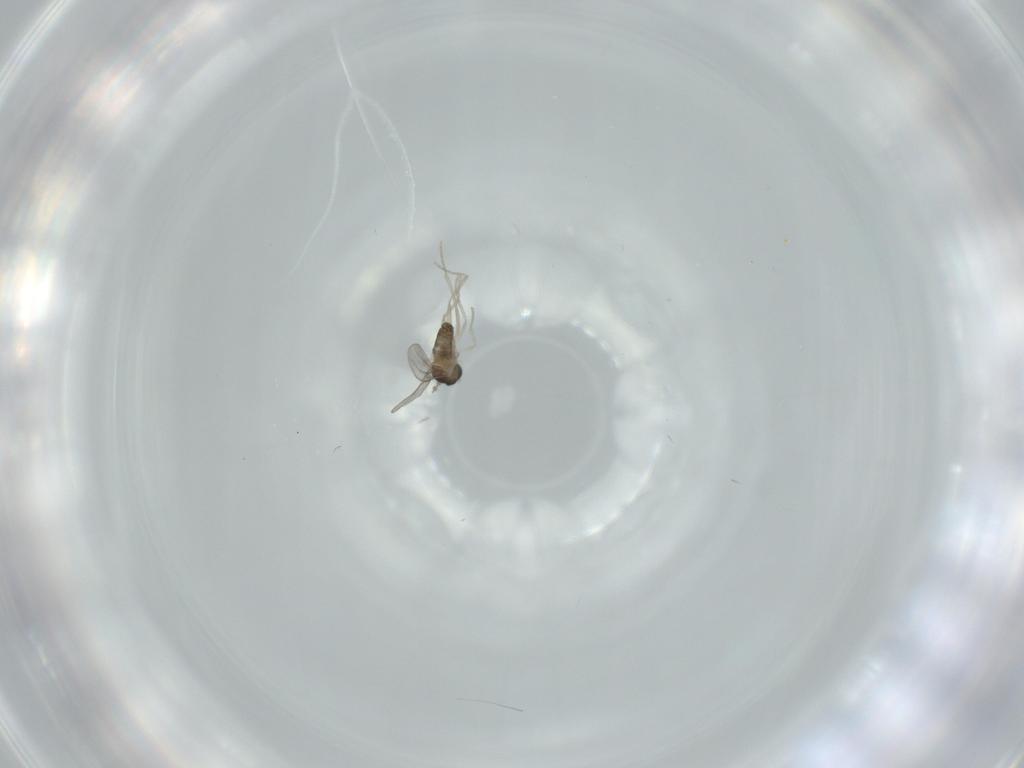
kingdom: Animalia
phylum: Arthropoda
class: Insecta
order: Diptera
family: Cecidomyiidae
